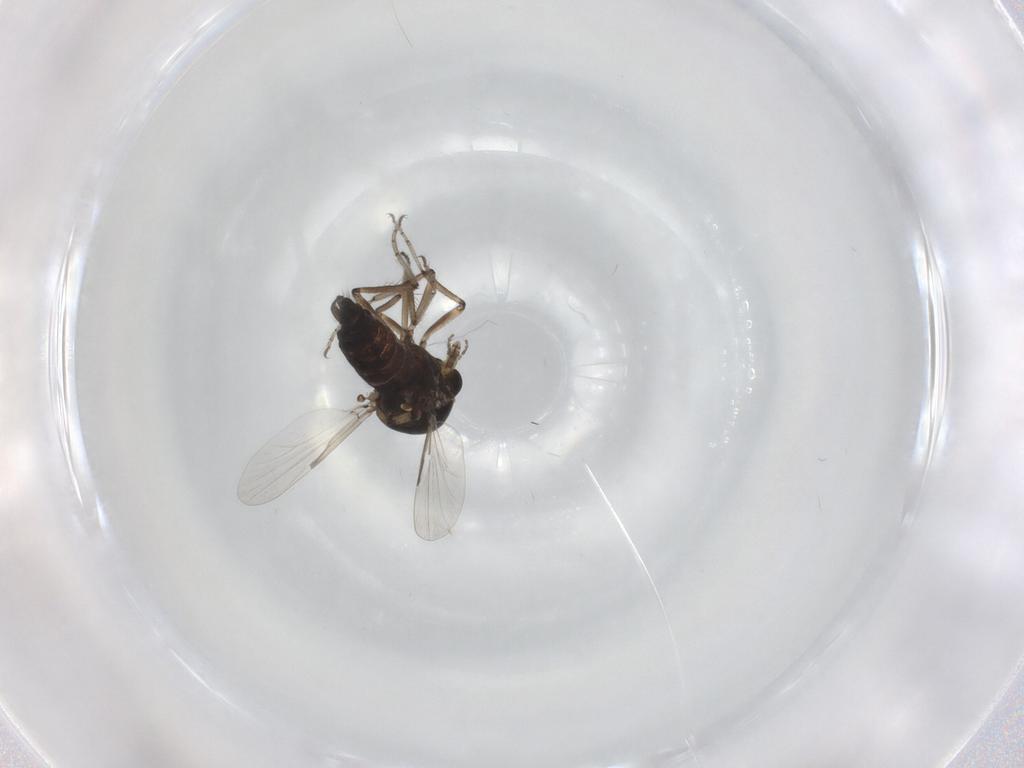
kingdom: Animalia
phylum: Arthropoda
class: Insecta
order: Diptera
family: Ceratopogonidae
